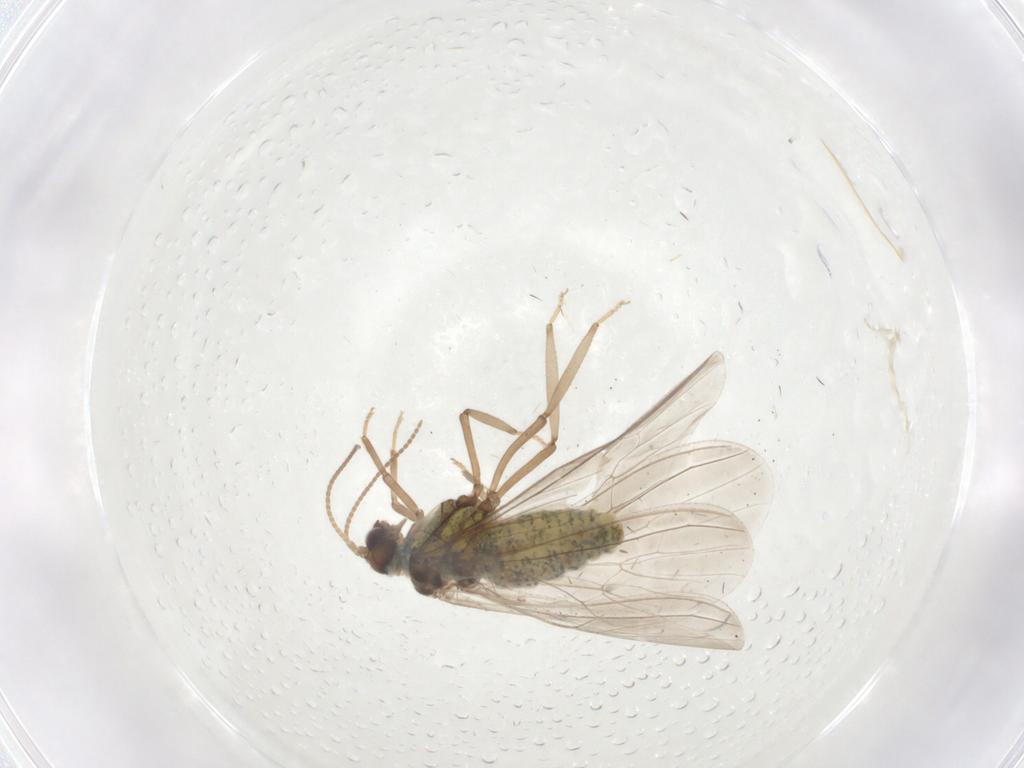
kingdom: Animalia
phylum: Arthropoda
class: Insecta
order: Neuroptera
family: Coniopterygidae
